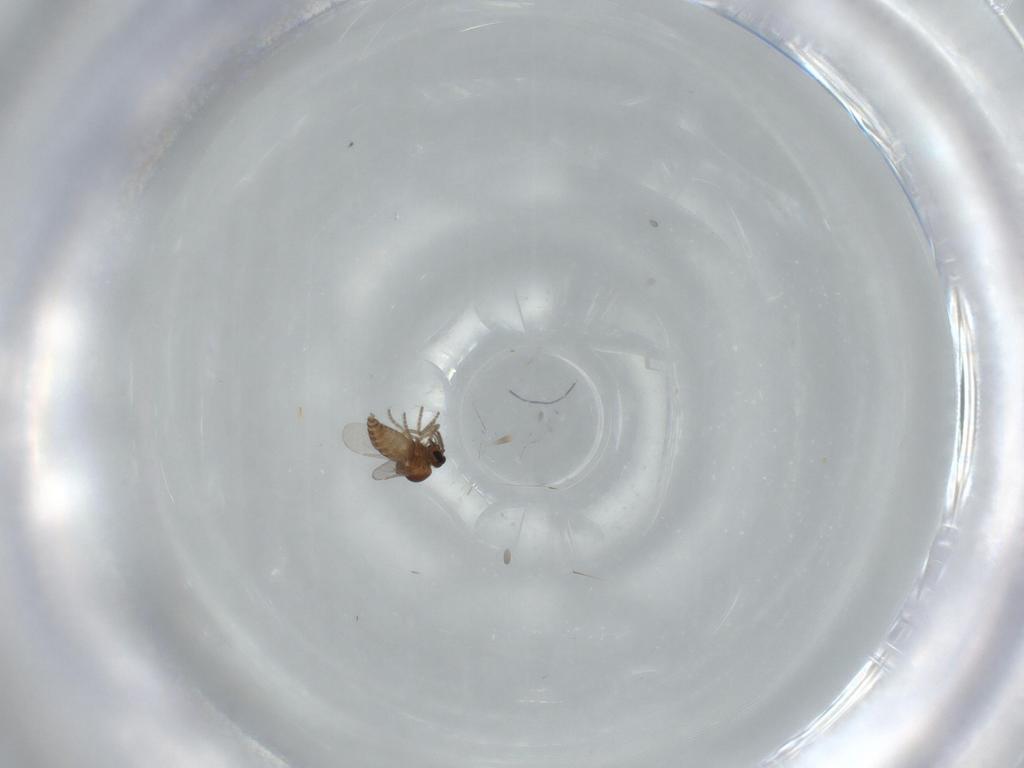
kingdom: Animalia
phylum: Arthropoda
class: Insecta
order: Diptera
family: Ceratopogonidae
